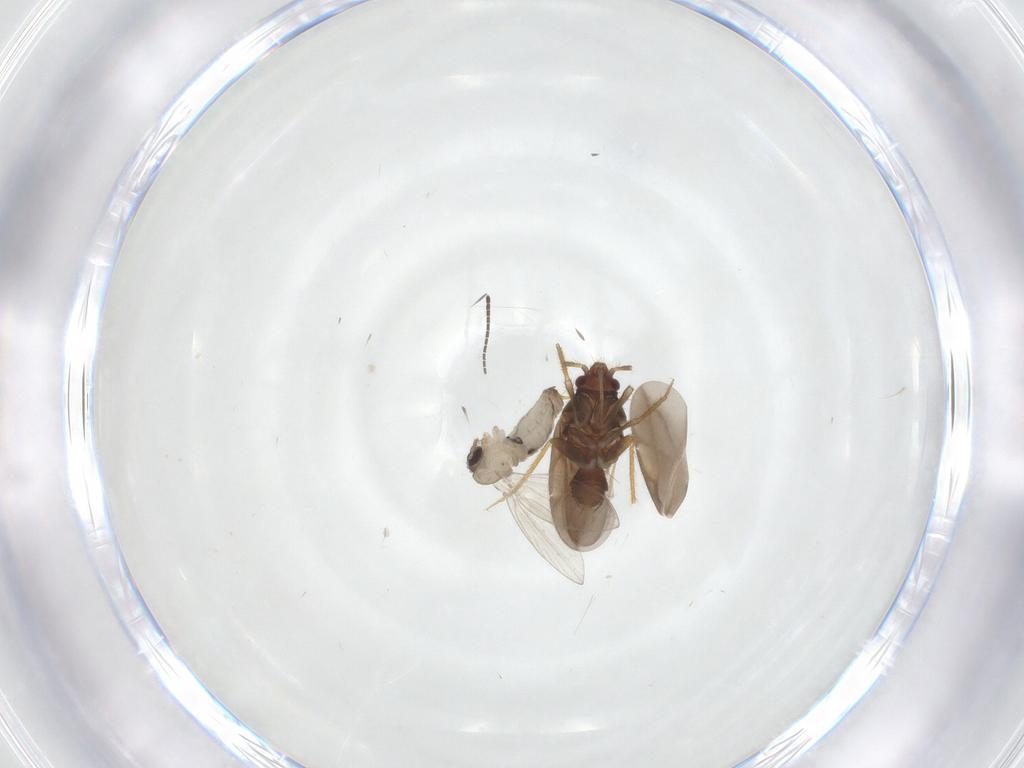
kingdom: Animalia
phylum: Arthropoda
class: Insecta
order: Diptera
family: Psychodidae
